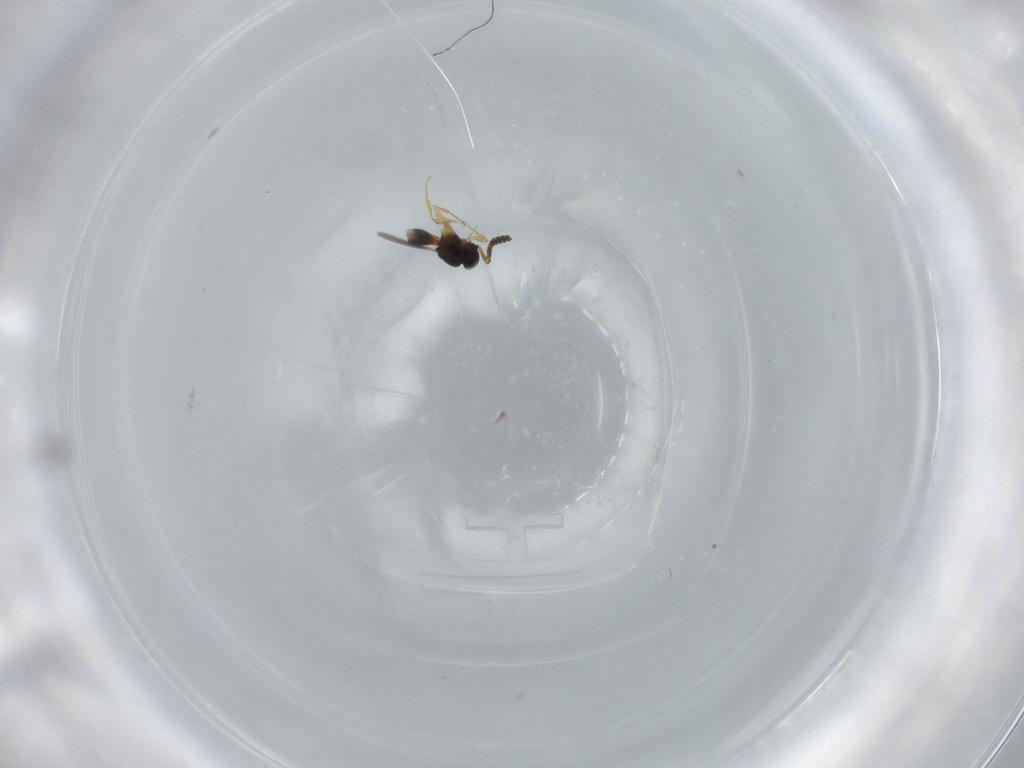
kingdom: Animalia
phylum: Arthropoda
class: Insecta
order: Hymenoptera
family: Scelionidae
